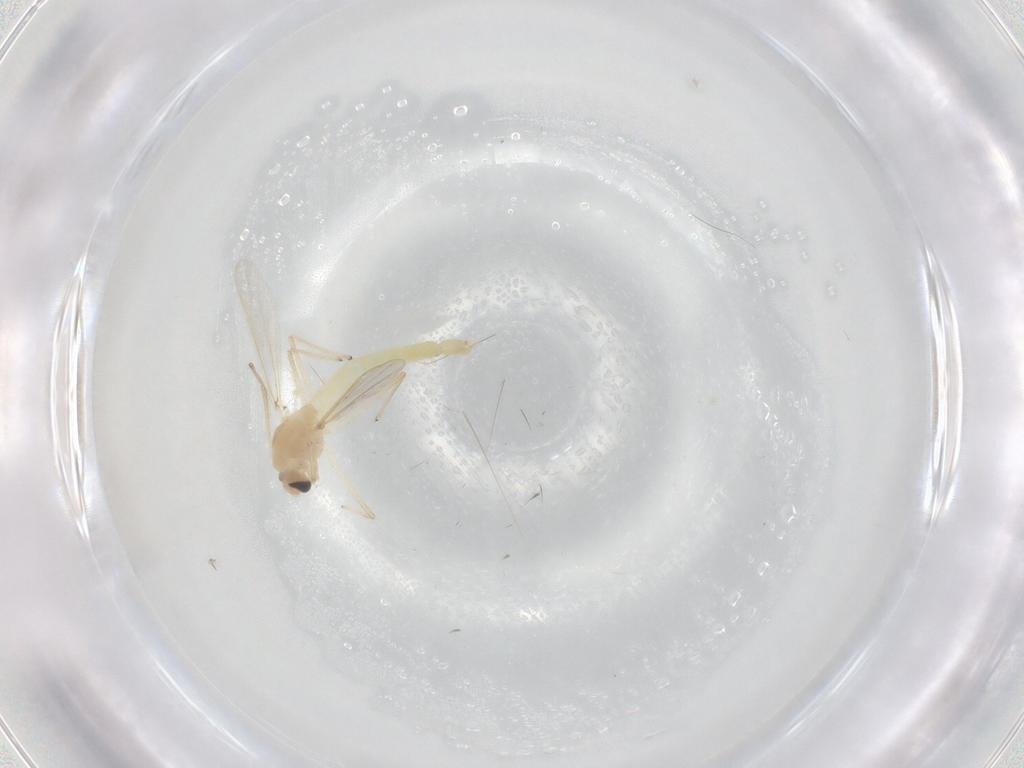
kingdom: Animalia
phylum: Arthropoda
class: Insecta
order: Diptera
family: Chironomidae
